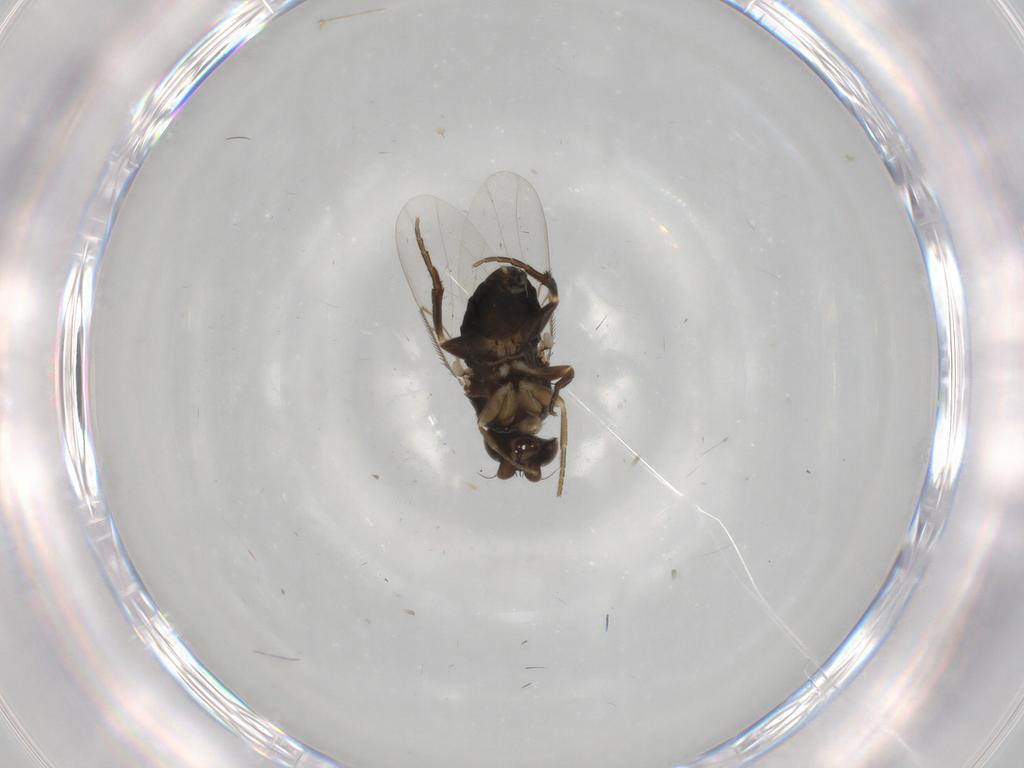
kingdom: Animalia
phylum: Arthropoda
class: Insecta
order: Diptera
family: Phoridae
